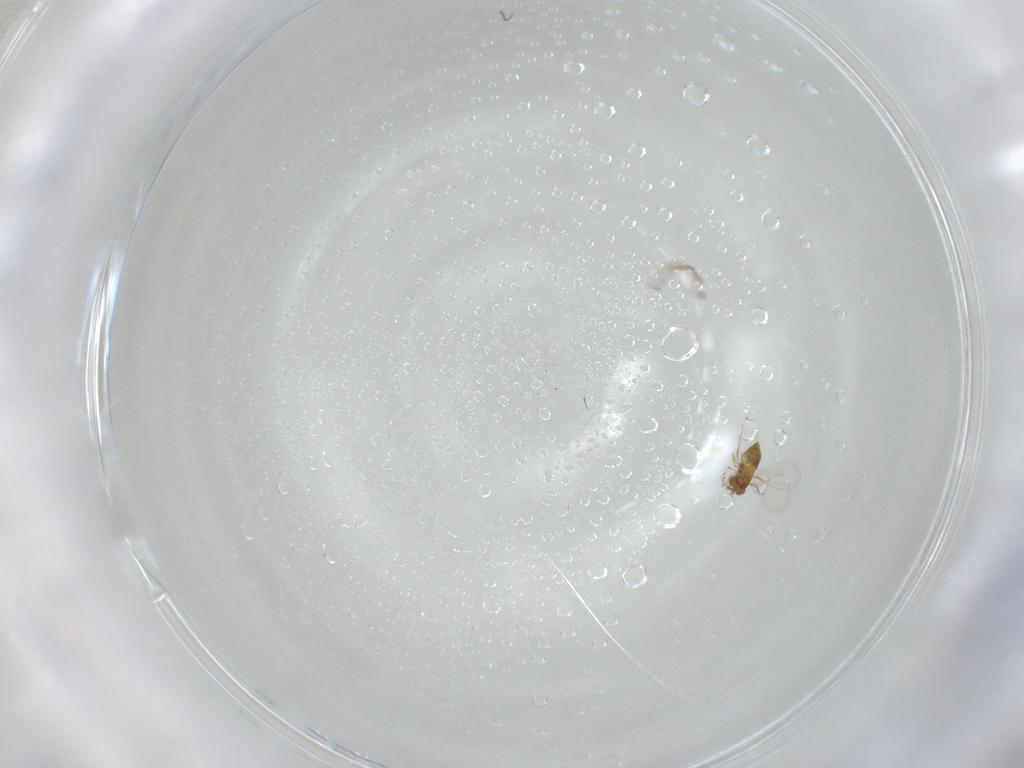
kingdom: Animalia
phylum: Arthropoda
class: Insecta
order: Hymenoptera
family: Trichogrammatidae
